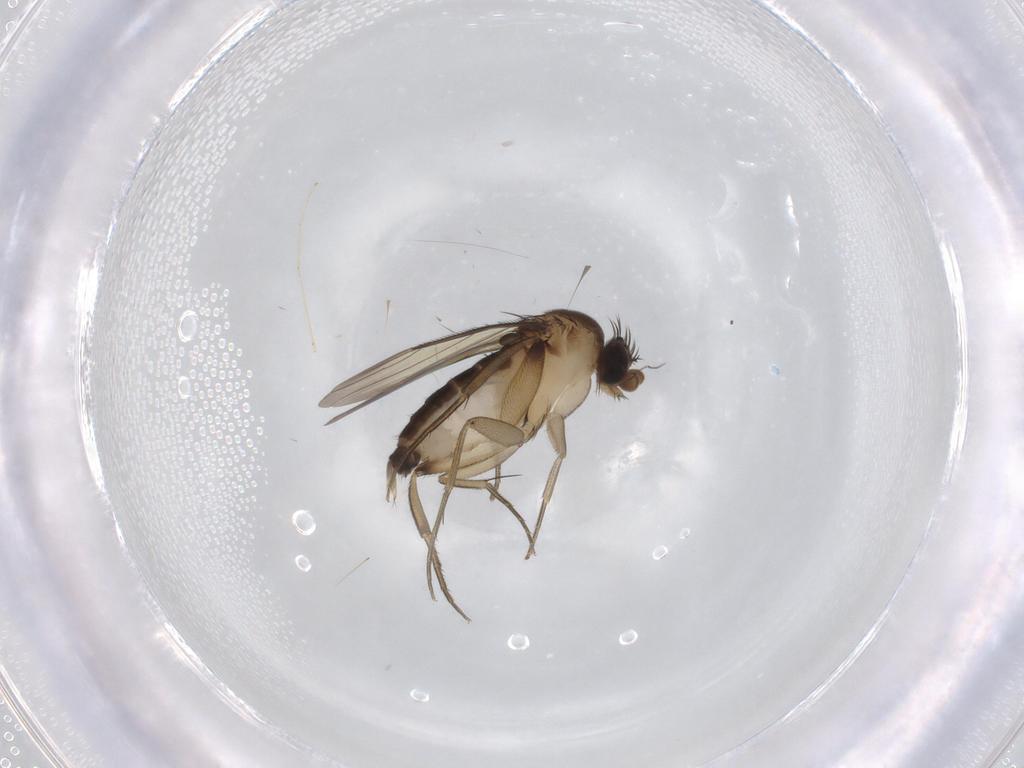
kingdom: Animalia
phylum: Arthropoda
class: Insecta
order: Diptera
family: Phoridae
